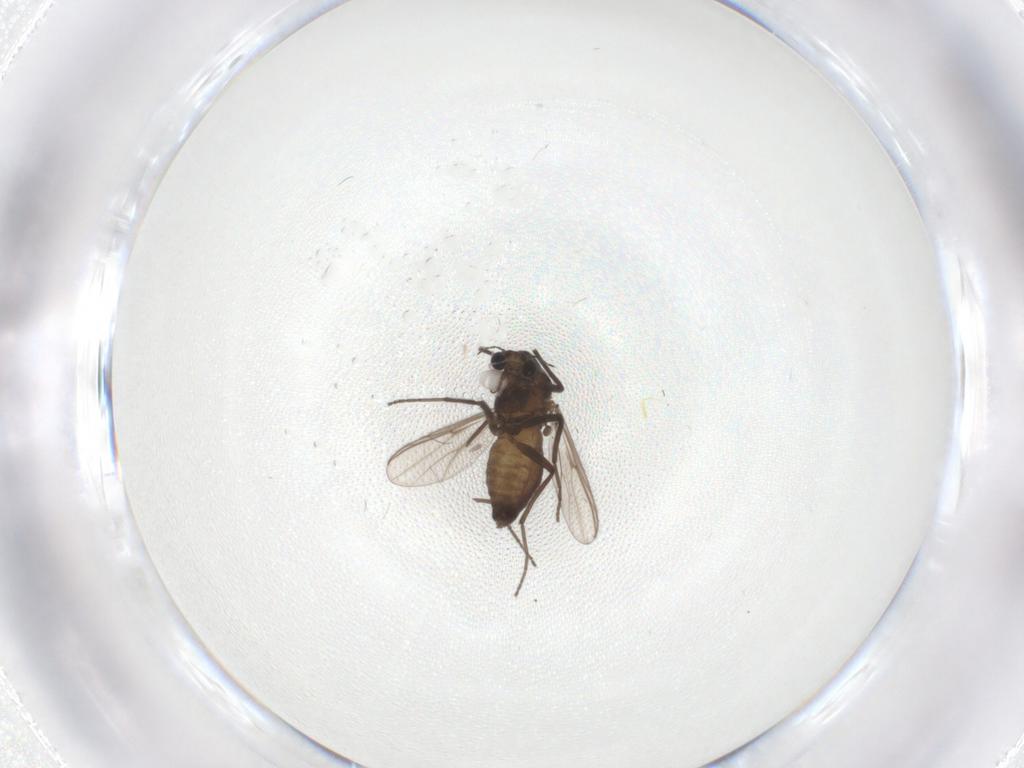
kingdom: Animalia
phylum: Arthropoda
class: Insecta
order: Diptera
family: Chironomidae
